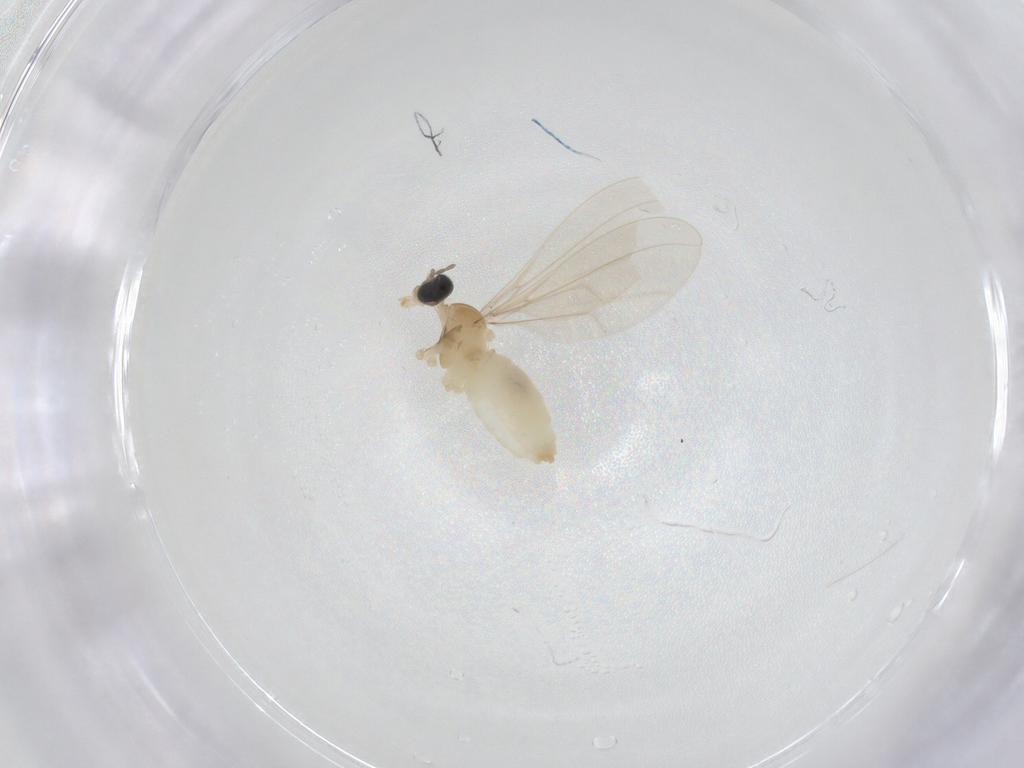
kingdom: Animalia
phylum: Arthropoda
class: Insecta
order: Diptera
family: Cecidomyiidae
